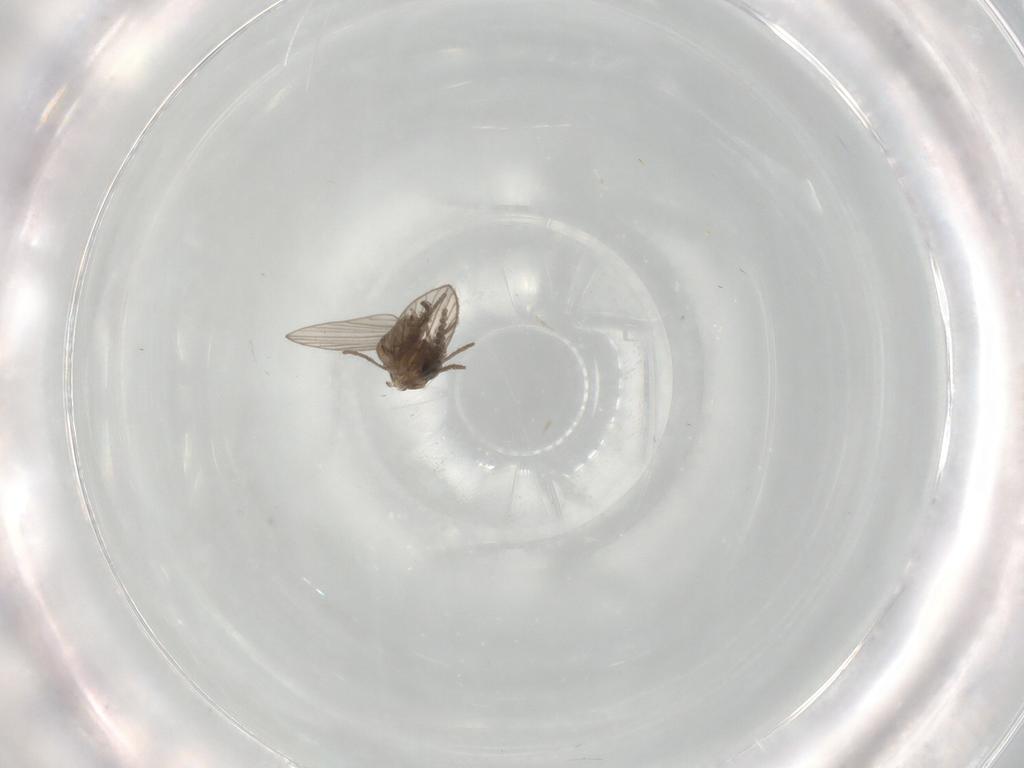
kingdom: Animalia
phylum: Arthropoda
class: Insecta
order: Diptera
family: Psychodidae
